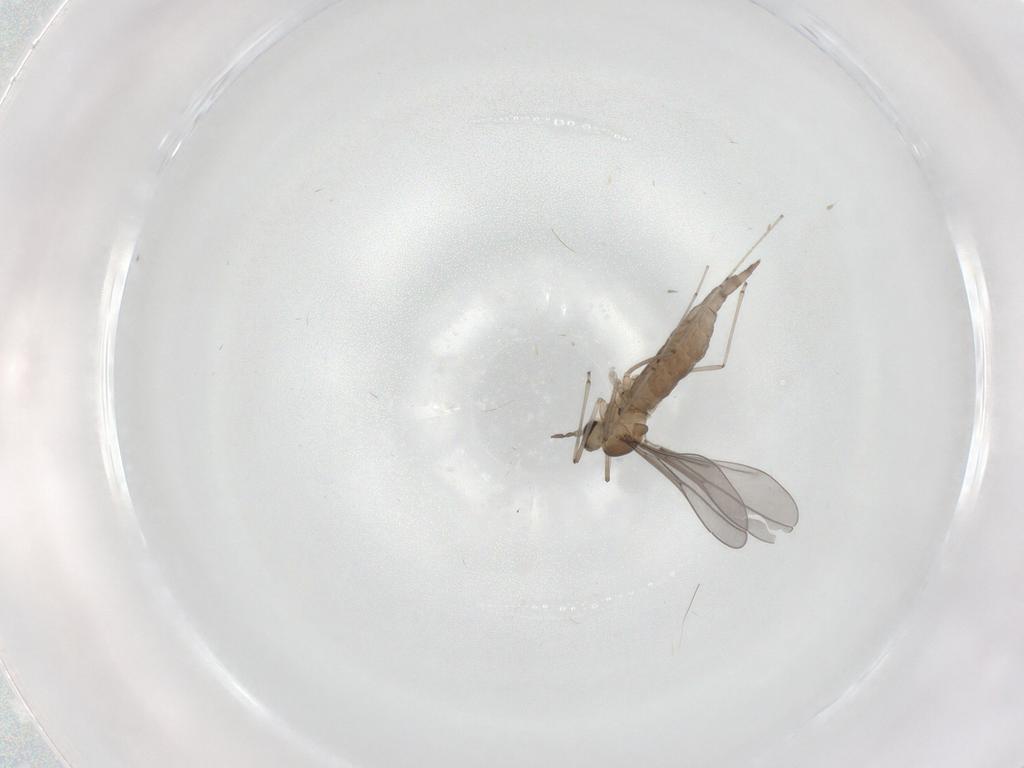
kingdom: Animalia
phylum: Arthropoda
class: Insecta
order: Diptera
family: Cecidomyiidae
